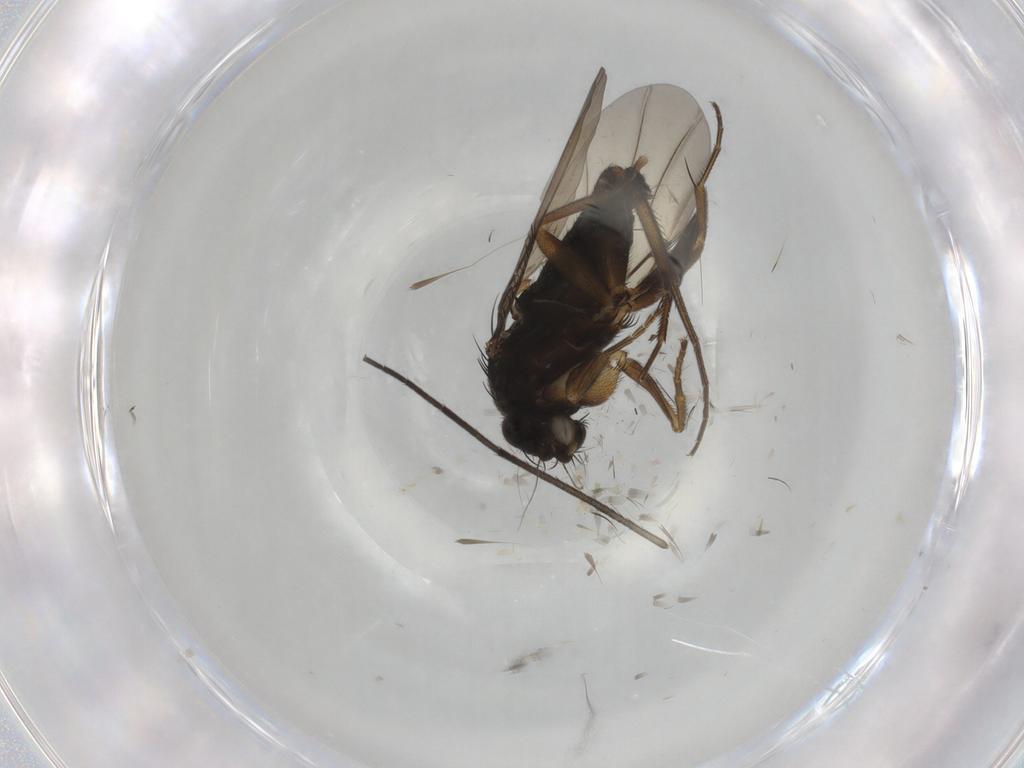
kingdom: Animalia
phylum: Arthropoda
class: Insecta
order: Diptera
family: Phoridae
